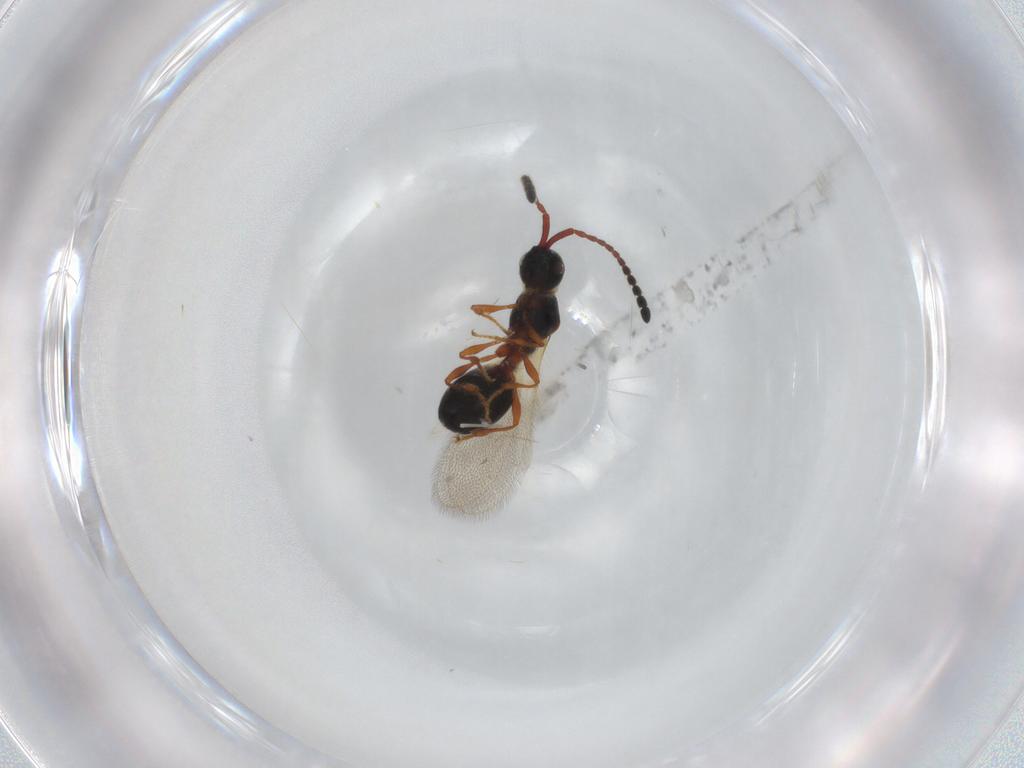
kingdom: Animalia
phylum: Arthropoda
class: Insecta
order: Hymenoptera
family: Diapriidae
